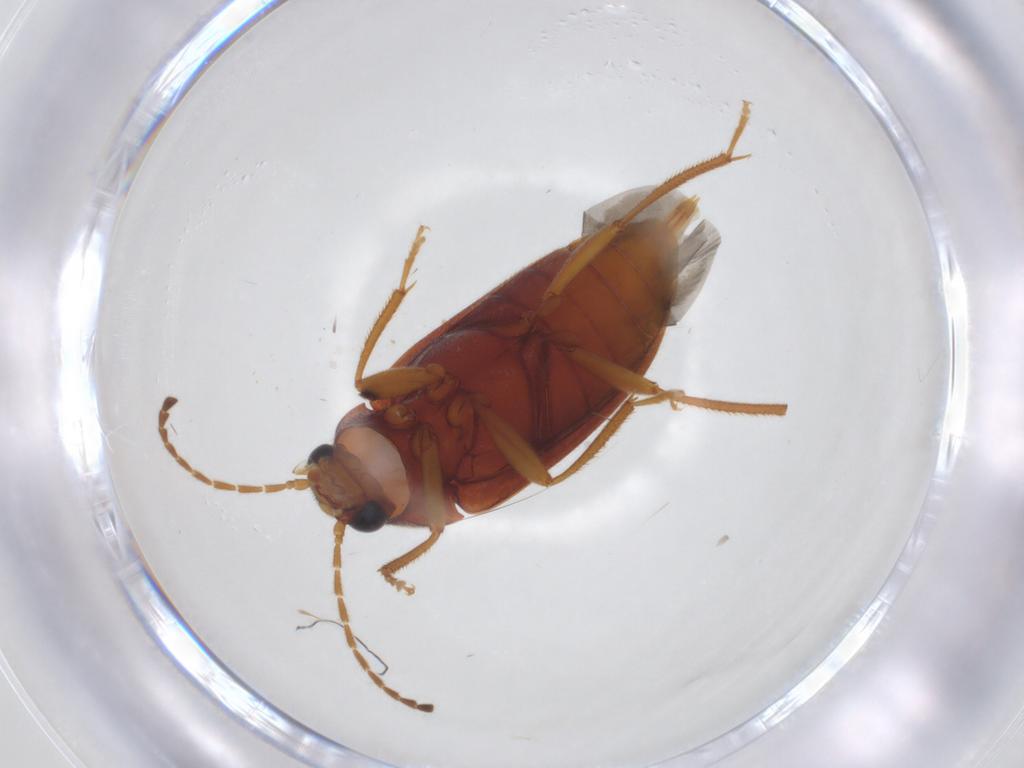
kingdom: Animalia
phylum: Arthropoda
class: Insecta
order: Coleoptera
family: Ptilodactylidae
